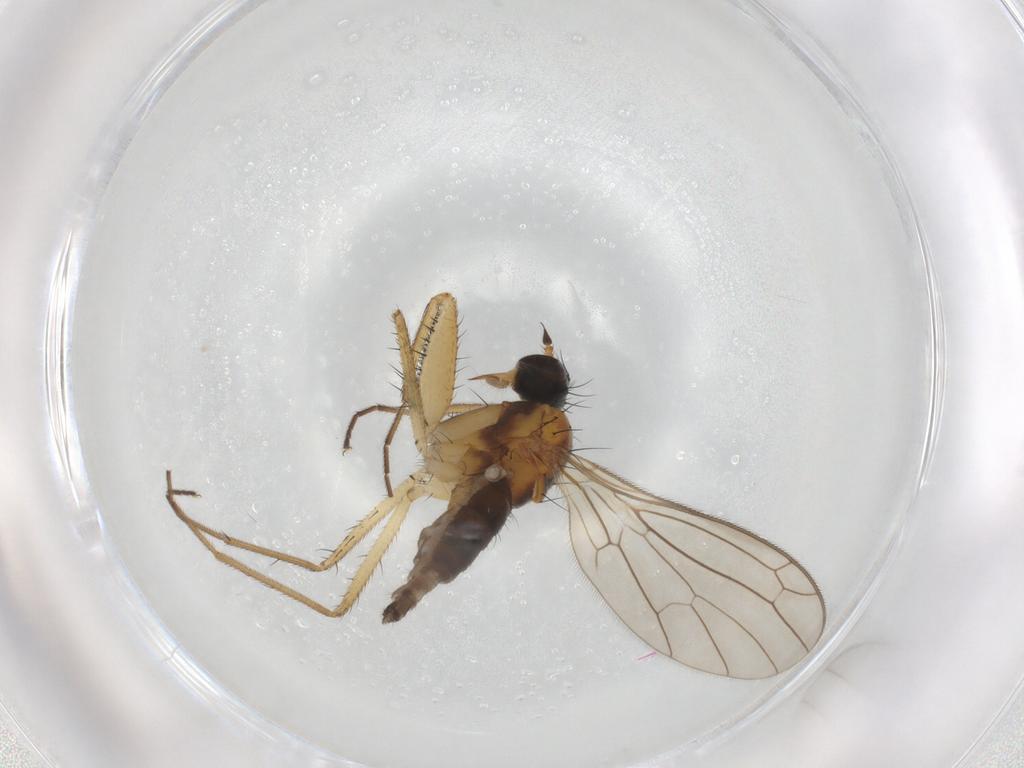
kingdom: Animalia
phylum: Arthropoda
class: Insecta
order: Diptera
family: Empididae
